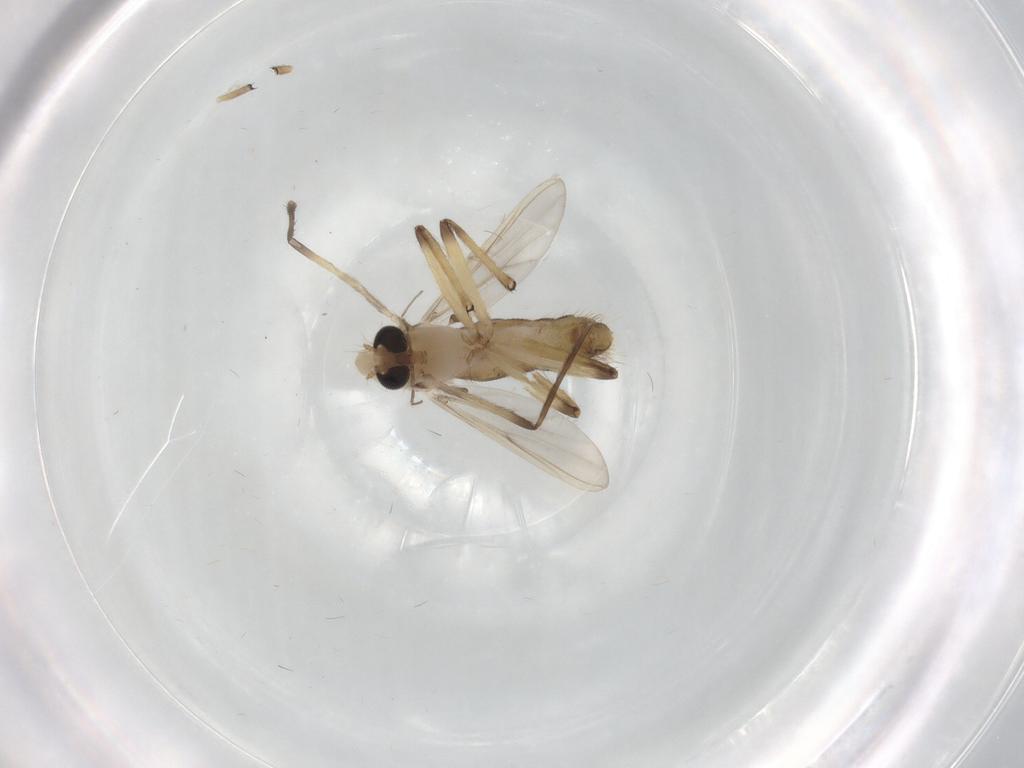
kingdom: Animalia
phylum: Arthropoda
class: Insecta
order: Diptera
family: Chironomidae
